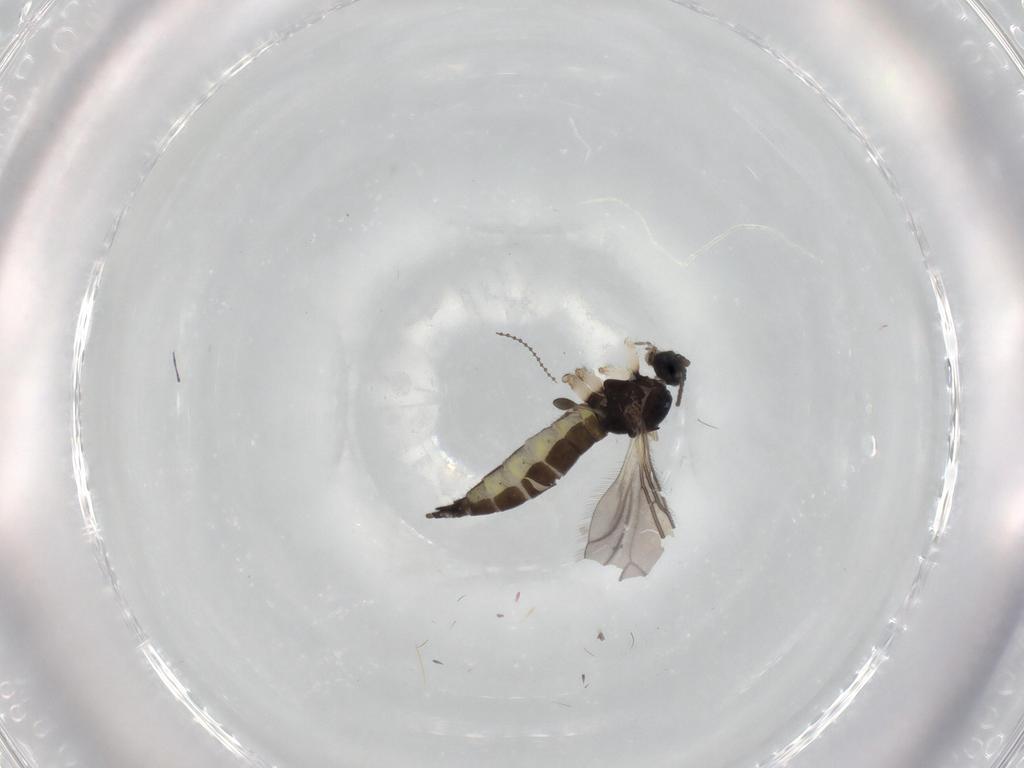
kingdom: Animalia
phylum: Arthropoda
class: Insecta
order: Diptera
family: Sciaridae
